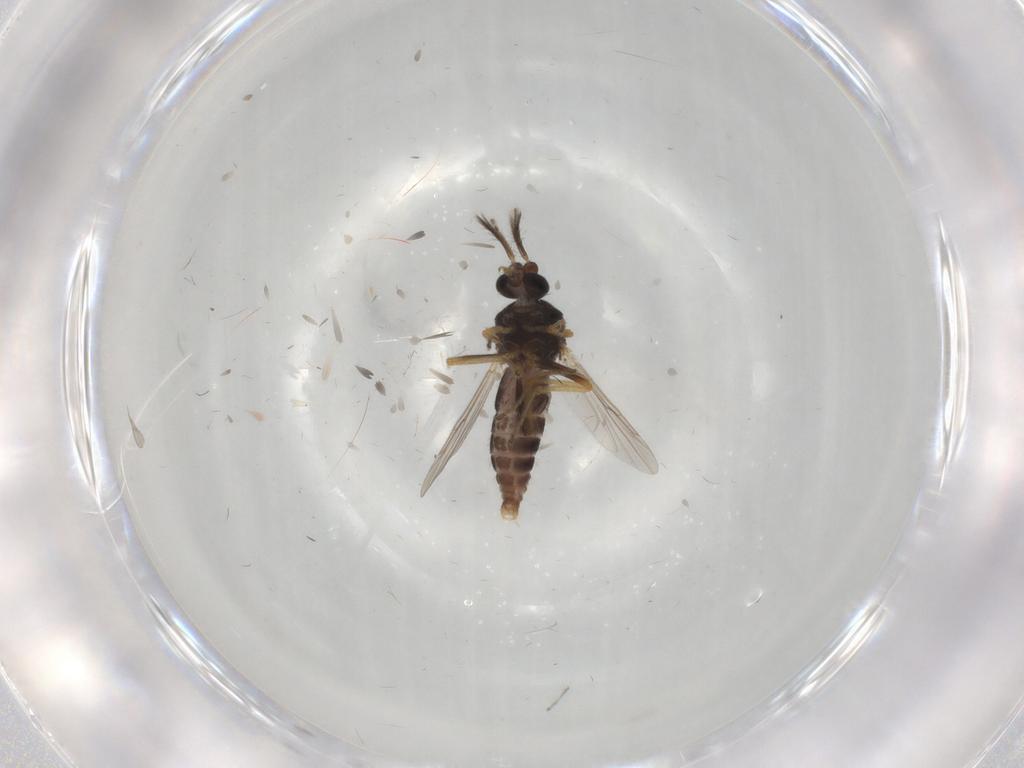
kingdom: Animalia
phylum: Arthropoda
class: Insecta
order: Diptera
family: Ceratopogonidae
